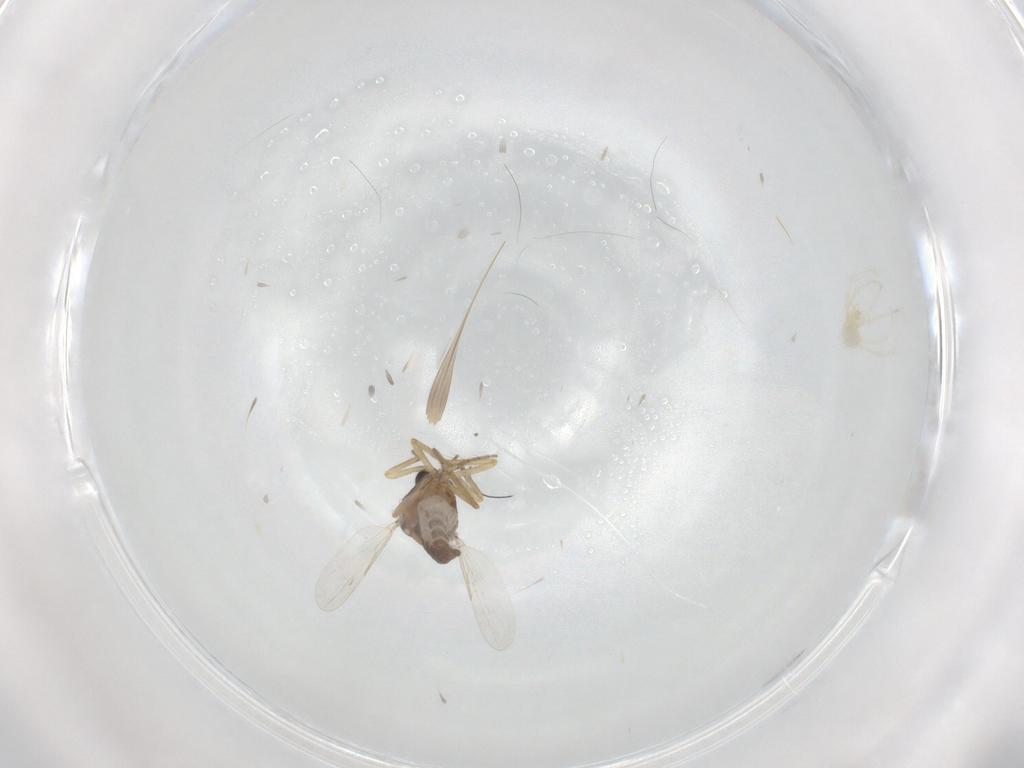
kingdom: Animalia
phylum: Arthropoda
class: Insecta
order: Diptera
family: Ceratopogonidae
